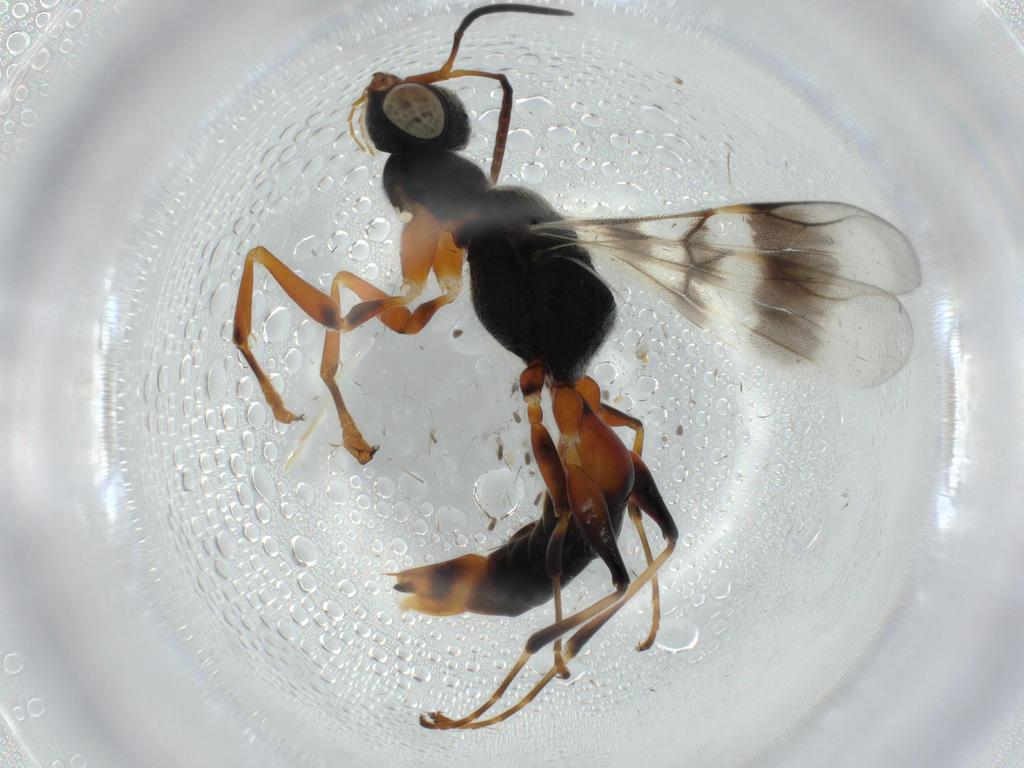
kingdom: Animalia
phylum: Arthropoda
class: Insecta
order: Hymenoptera
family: Dryinidae
